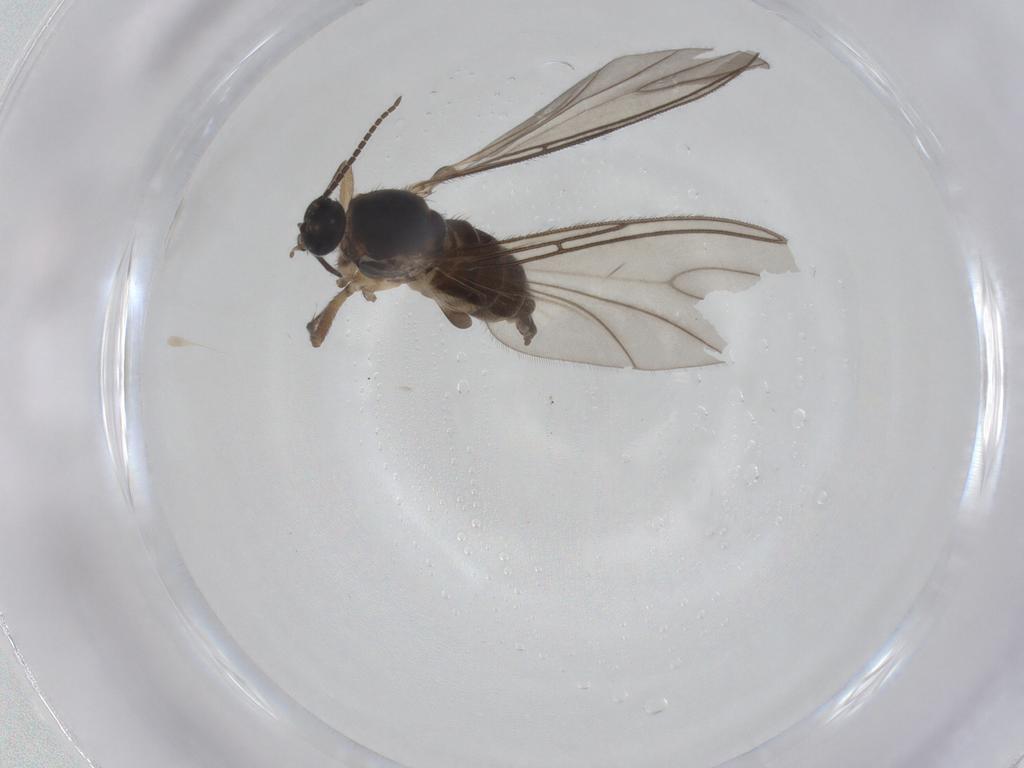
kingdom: Animalia
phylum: Arthropoda
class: Insecta
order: Diptera
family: Sciaridae
